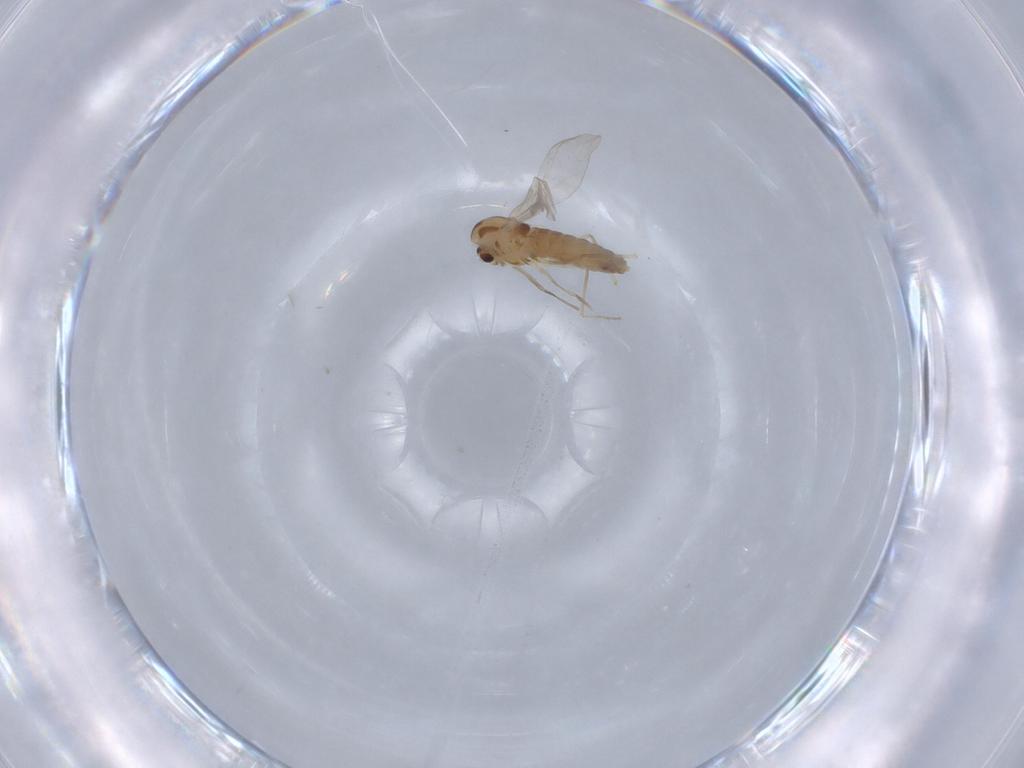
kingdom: Animalia
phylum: Arthropoda
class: Insecta
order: Diptera
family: Anthomyiidae
